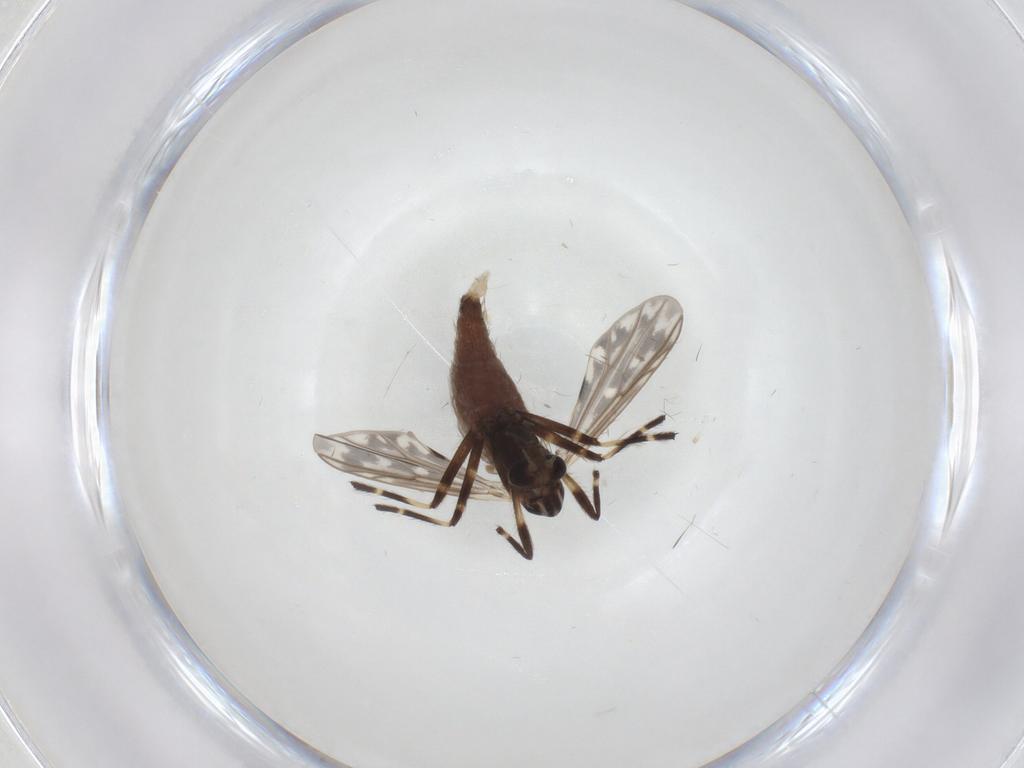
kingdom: Animalia
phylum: Arthropoda
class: Insecta
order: Diptera
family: Chironomidae
